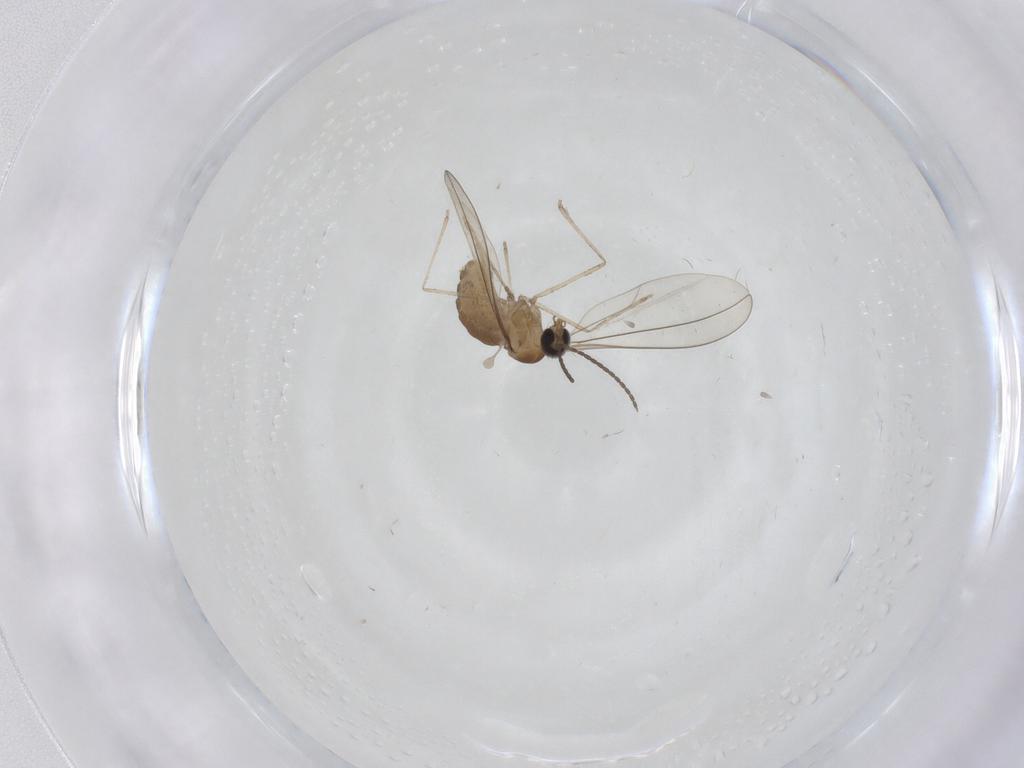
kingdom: Animalia
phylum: Arthropoda
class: Insecta
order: Diptera
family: Cecidomyiidae
